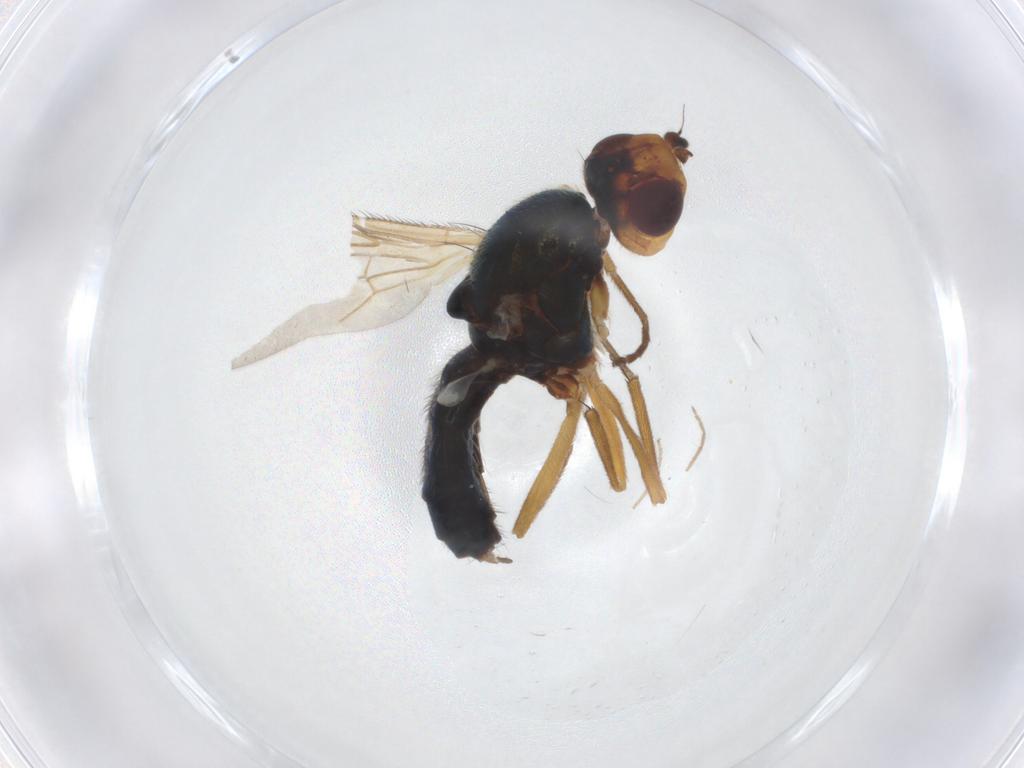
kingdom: Animalia
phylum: Arthropoda
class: Insecta
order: Diptera
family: Chironomidae
